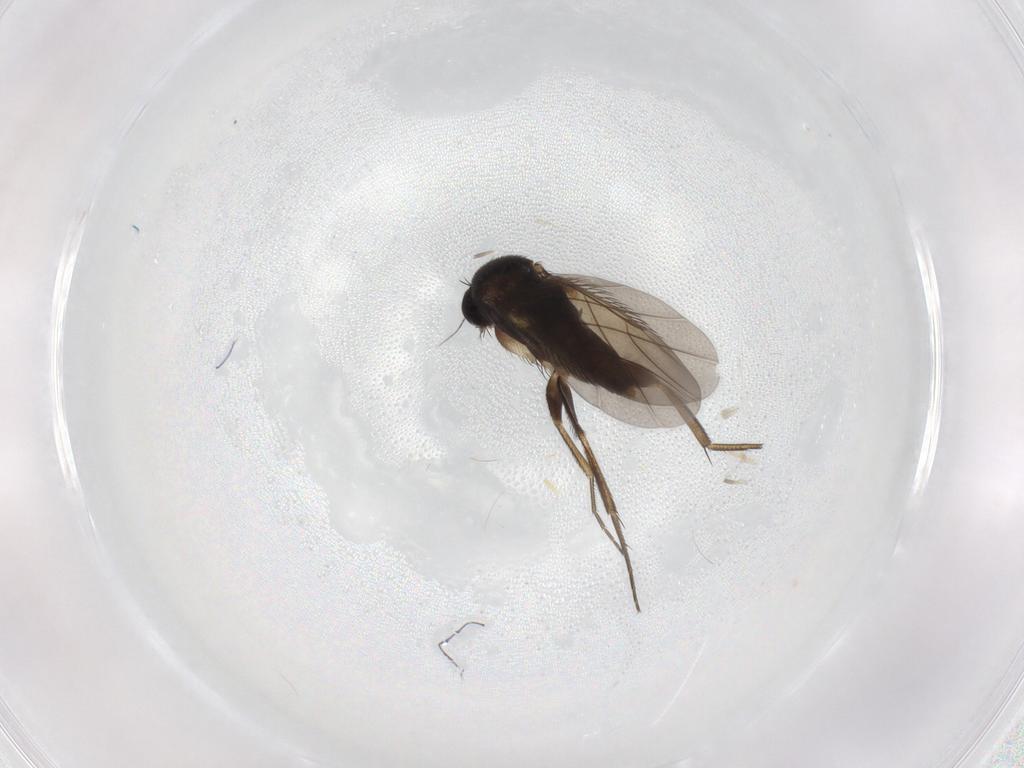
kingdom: Animalia
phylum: Arthropoda
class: Insecta
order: Diptera
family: Phoridae
